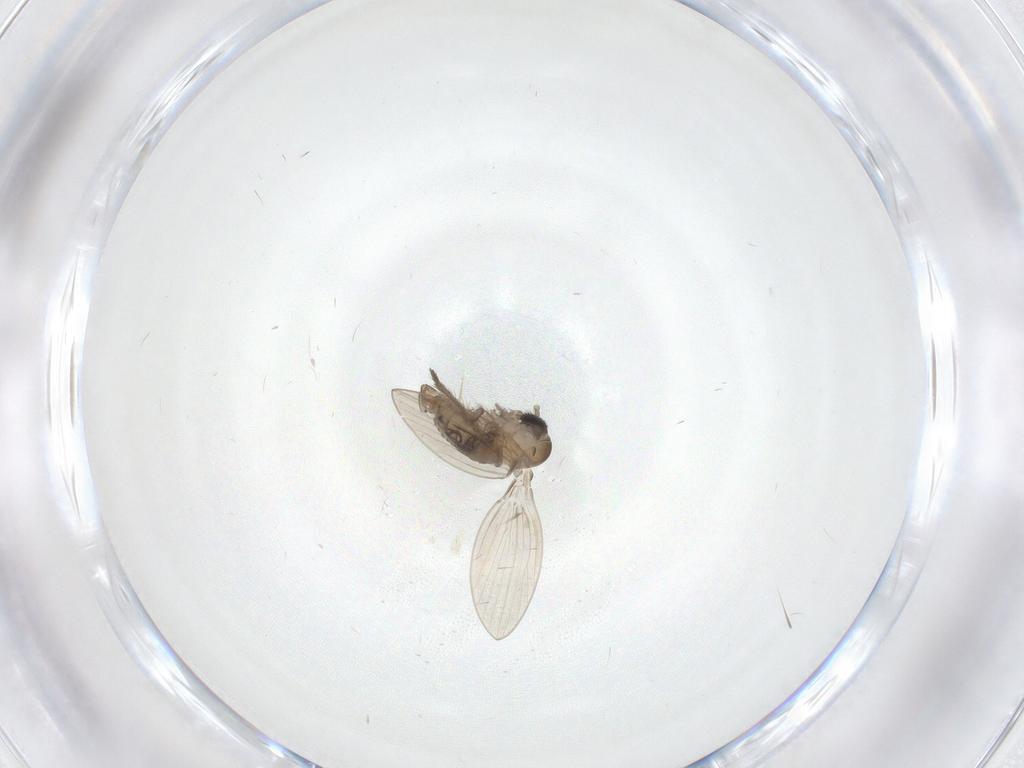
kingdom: Animalia
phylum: Arthropoda
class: Insecta
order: Diptera
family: Psychodidae
